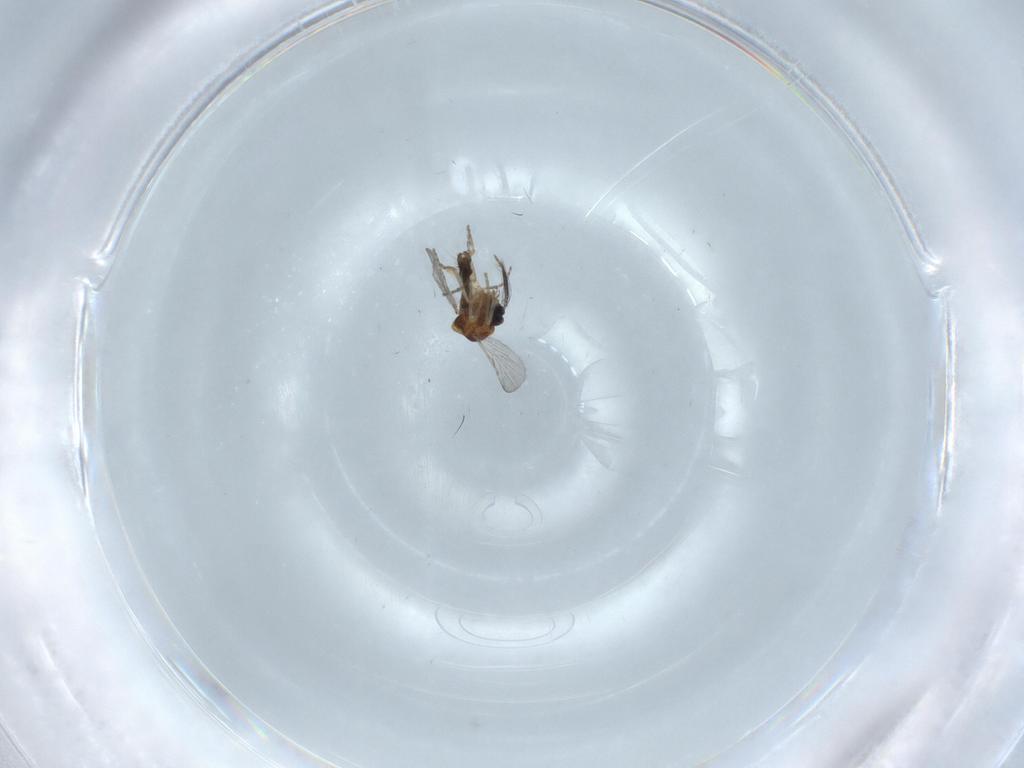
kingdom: Animalia
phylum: Arthropoda
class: Insecta
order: Diptera
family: Ceratopogonidae
